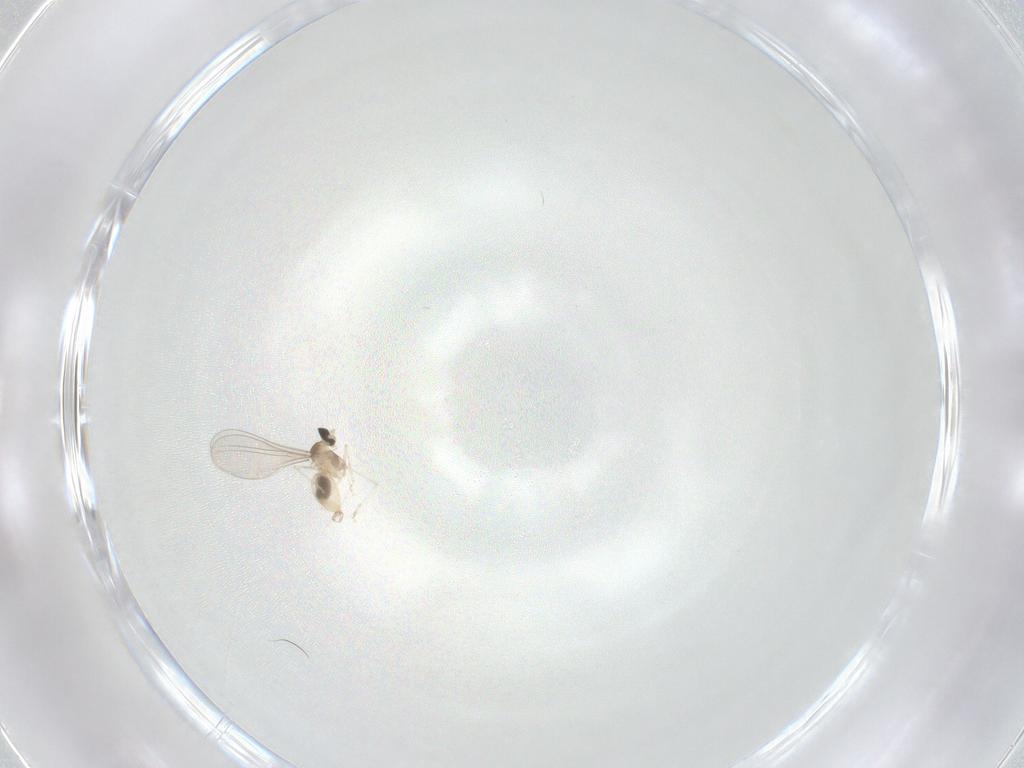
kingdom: Animalia
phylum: Arthropoda
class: Insecta
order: Diptera
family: Cecidomyiidae
